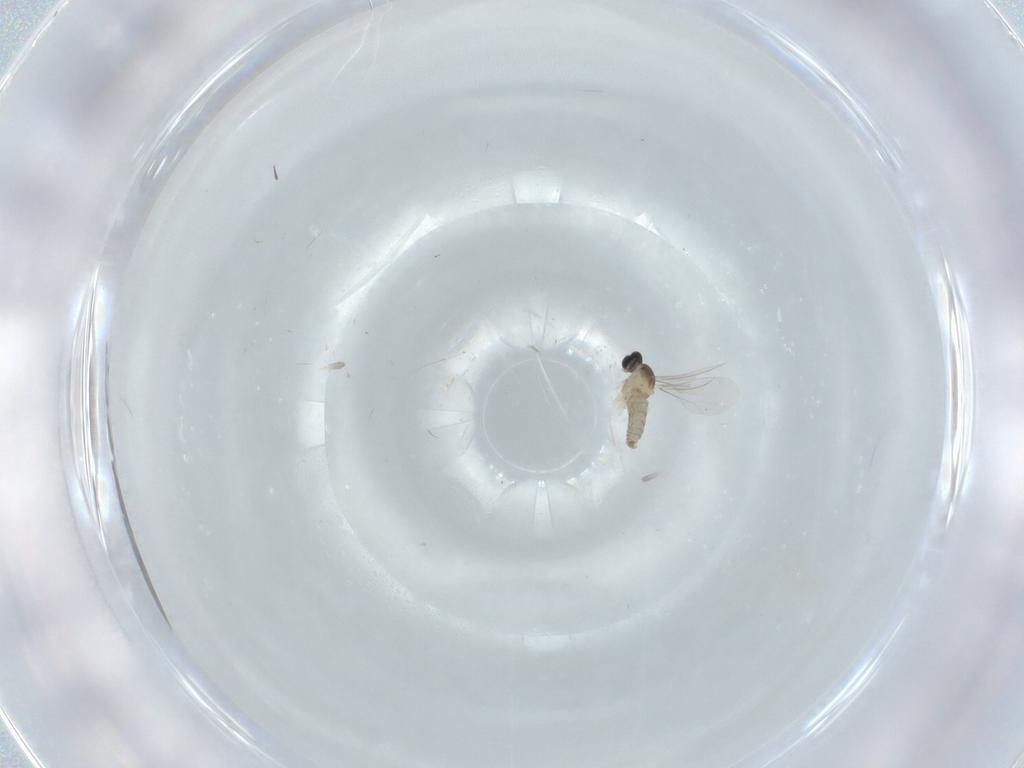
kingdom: Animalia
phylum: Arthropoda
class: Insecta
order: Diptera
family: Cecidomyiidae
